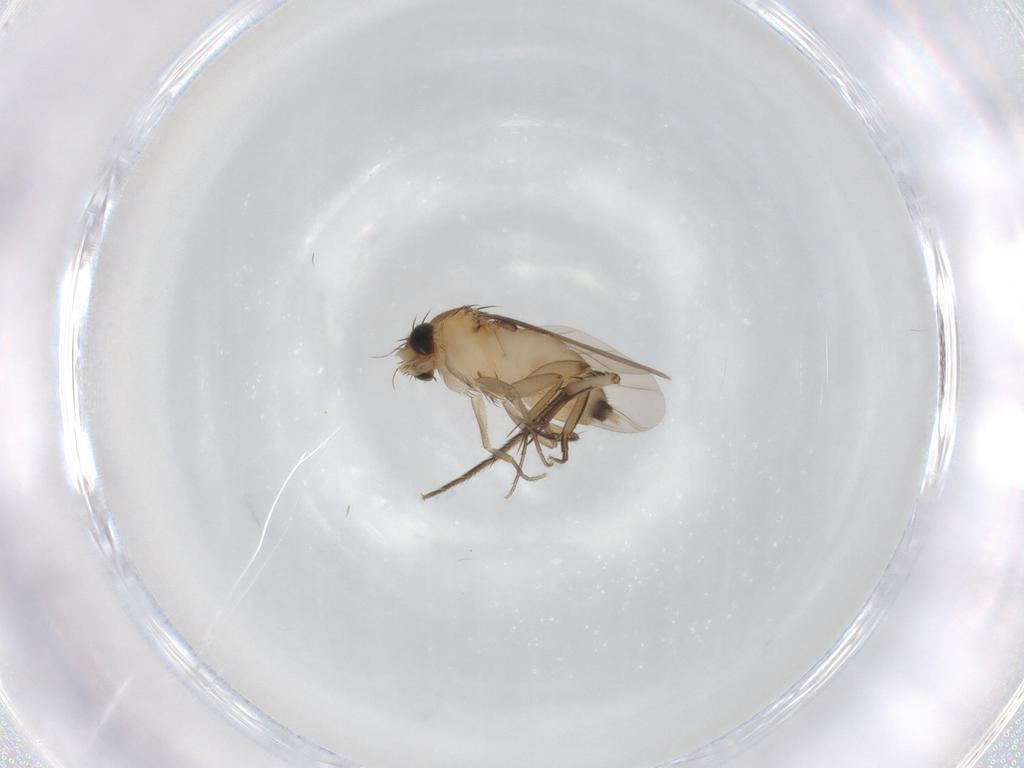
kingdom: Animalia
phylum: Arthropoda
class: Insecta
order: Diptera
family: Phoridae
